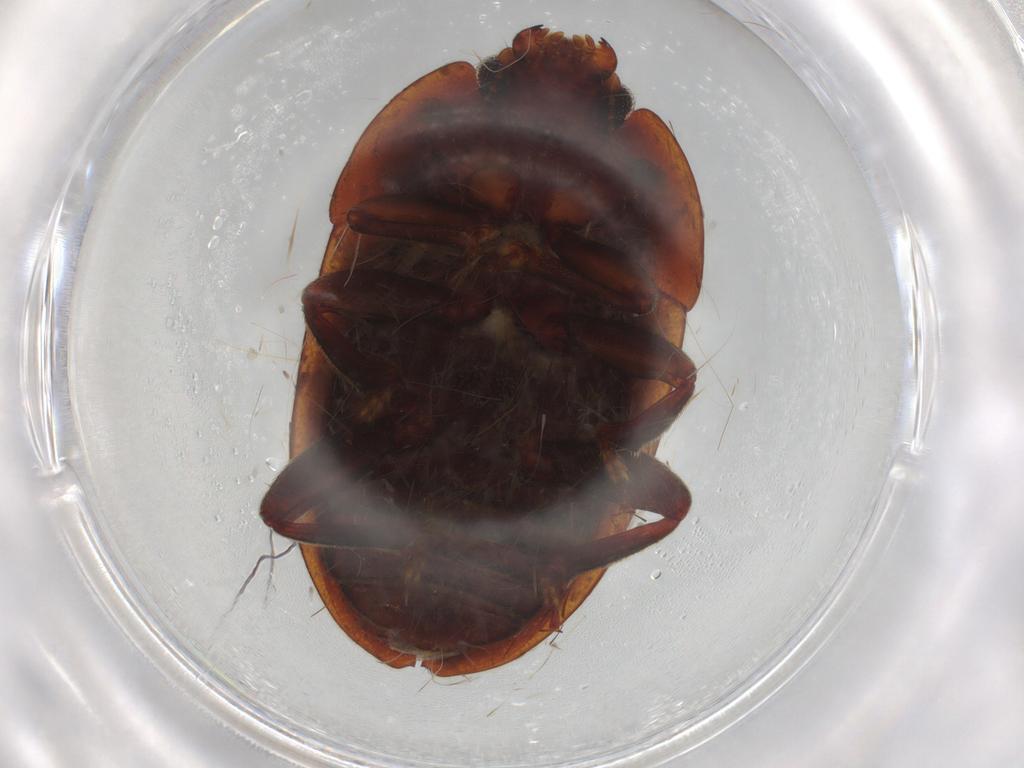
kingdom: Animalia
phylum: Arthropoda
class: Insecta
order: Coleoptera
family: Nitidulidae
